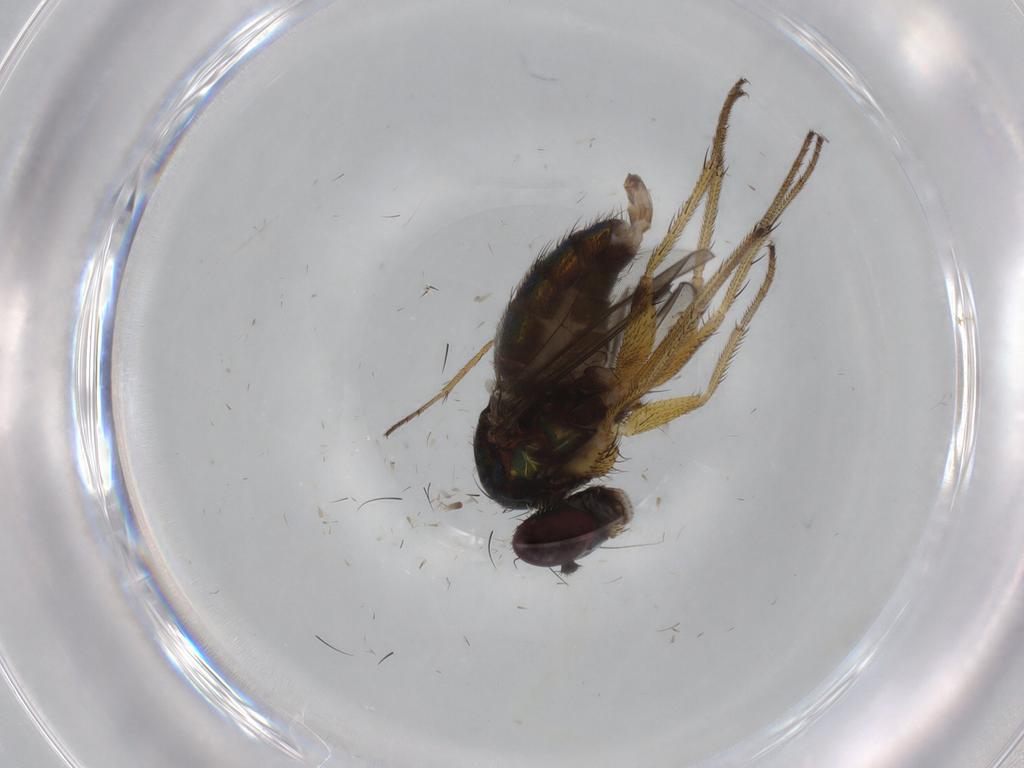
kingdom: Animalia
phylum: Arthropoda
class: Insecta
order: Diptera
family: Dolichopodidae
